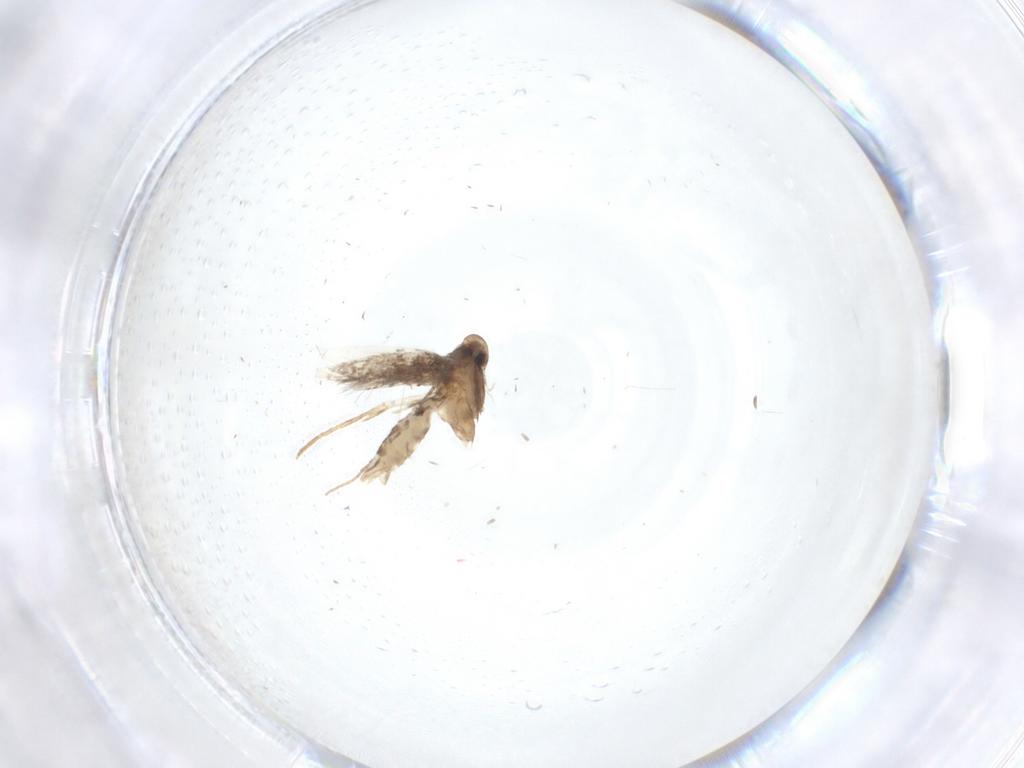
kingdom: Animalia
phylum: Arthropoda
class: Insecta
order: Lepidoptera
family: Gracillariidae
